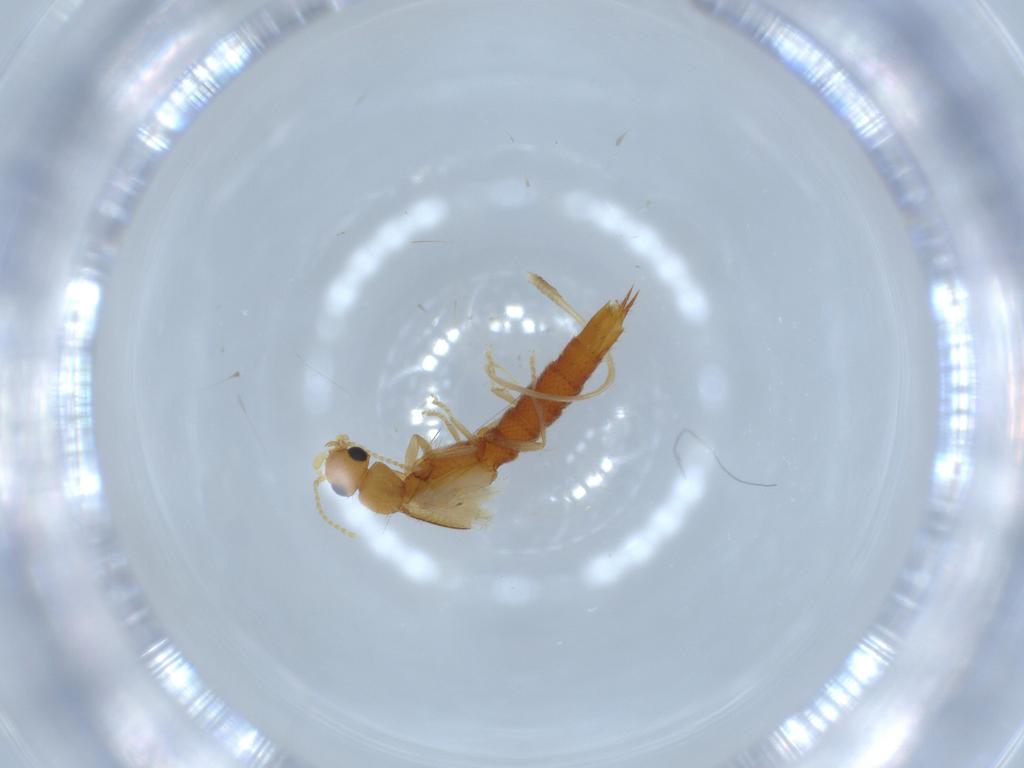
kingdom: Animalia
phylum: Arthropoda
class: Insecta
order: Coleoptera
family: Staphylinidae
